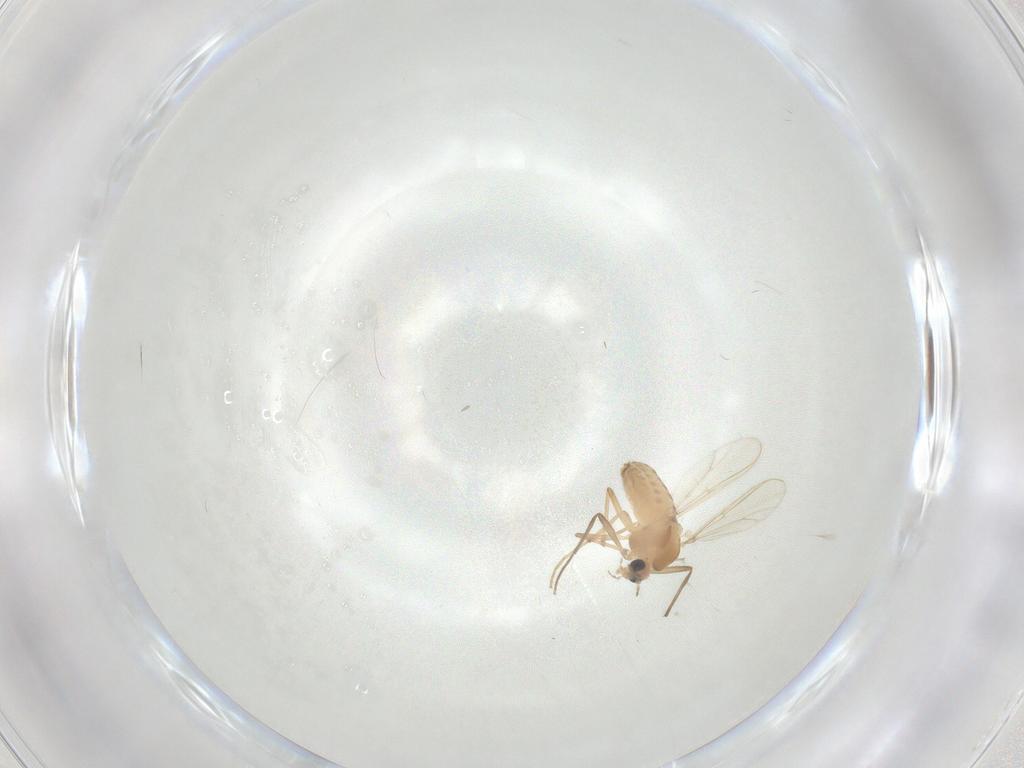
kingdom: Animalia
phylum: Arthropoda
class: Insecta
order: Diptera
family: Chironomidae
